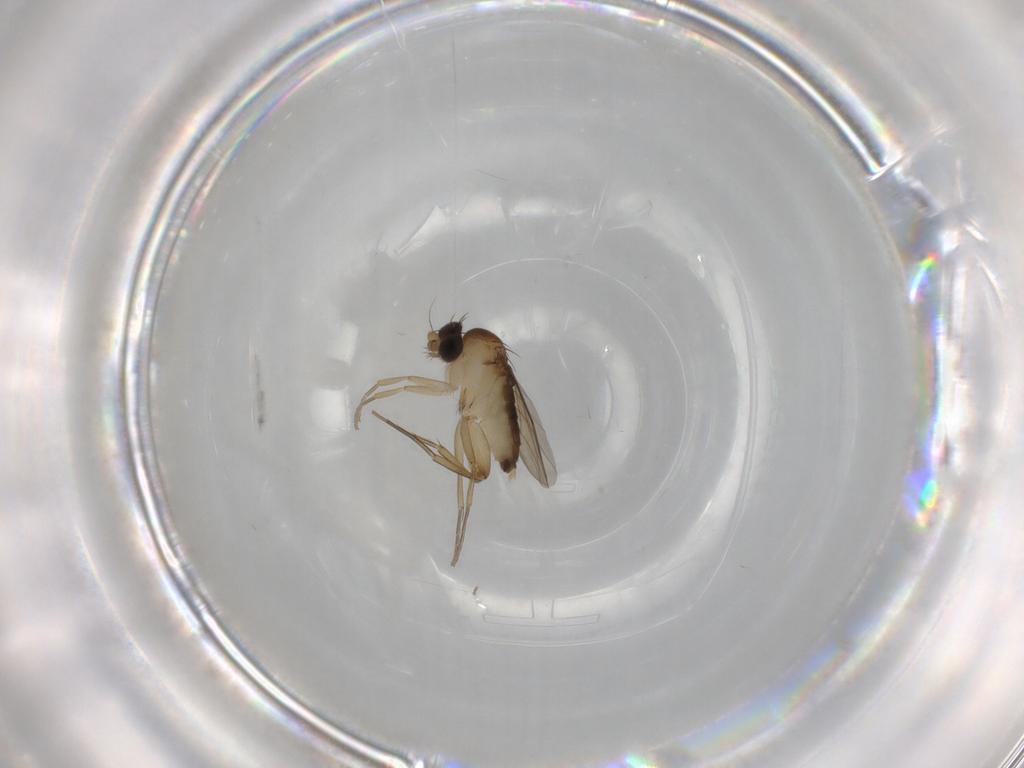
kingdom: Animalia
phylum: Arthropoda
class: Insecta
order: Diptera
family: Phoridae
